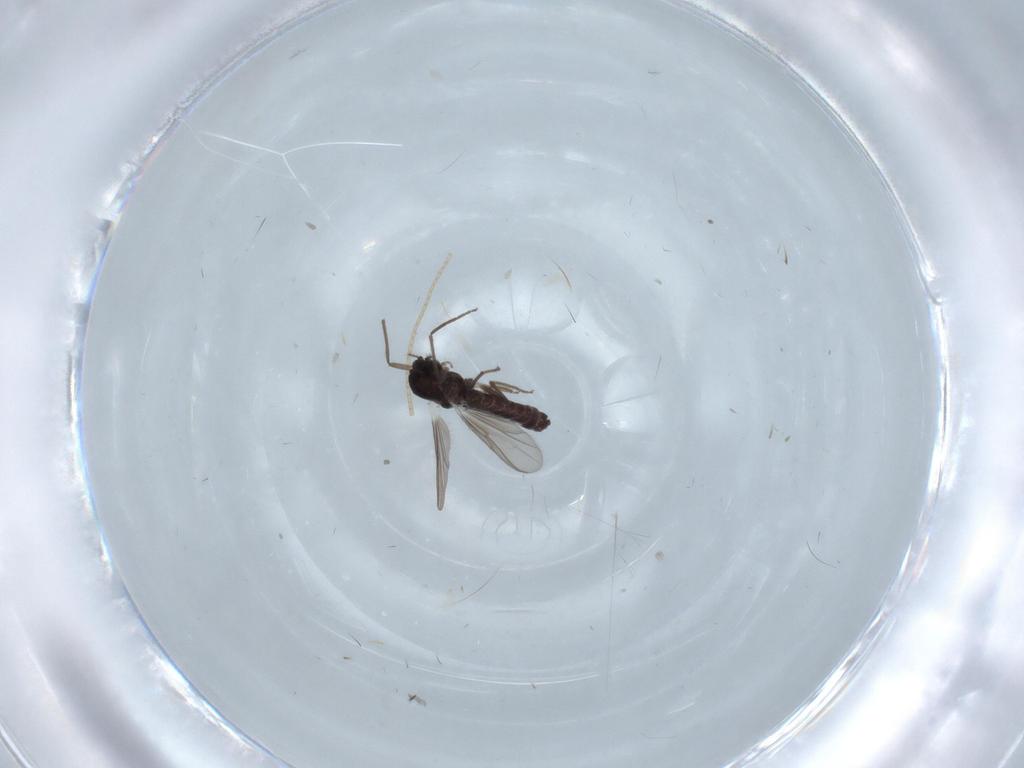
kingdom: Animalia
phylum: Arthropoda
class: Insecta
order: Diptera
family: Chironomidae
